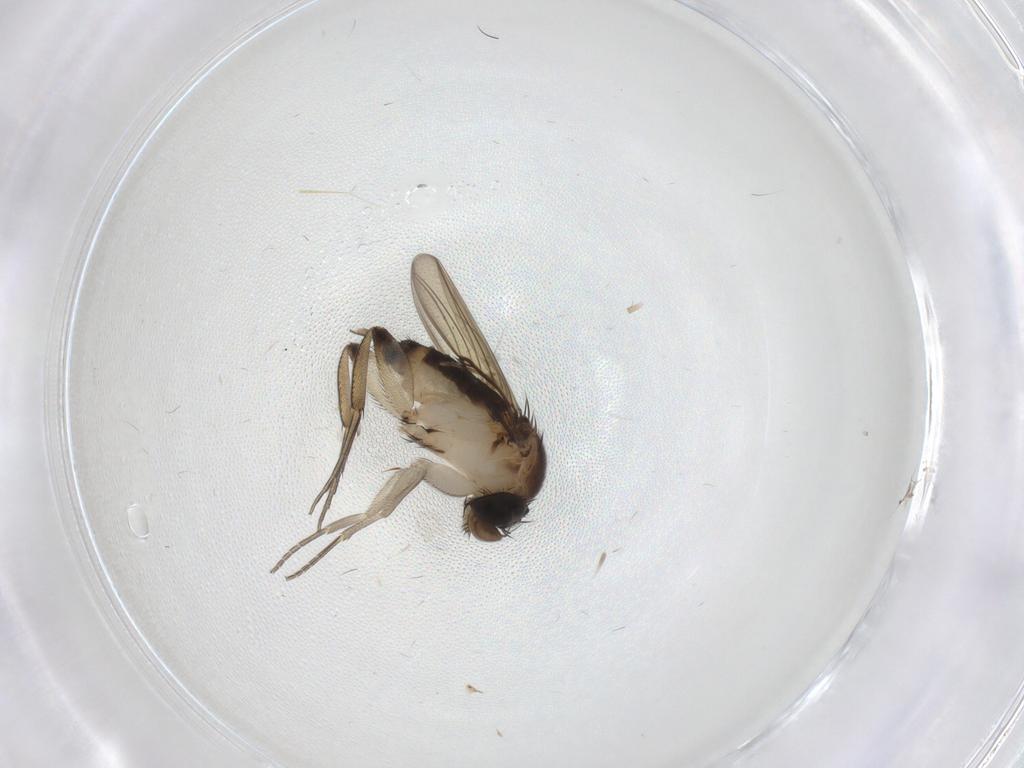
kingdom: Animalia
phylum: Arthropoda
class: Insecta
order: Diptera
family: Phoridae
